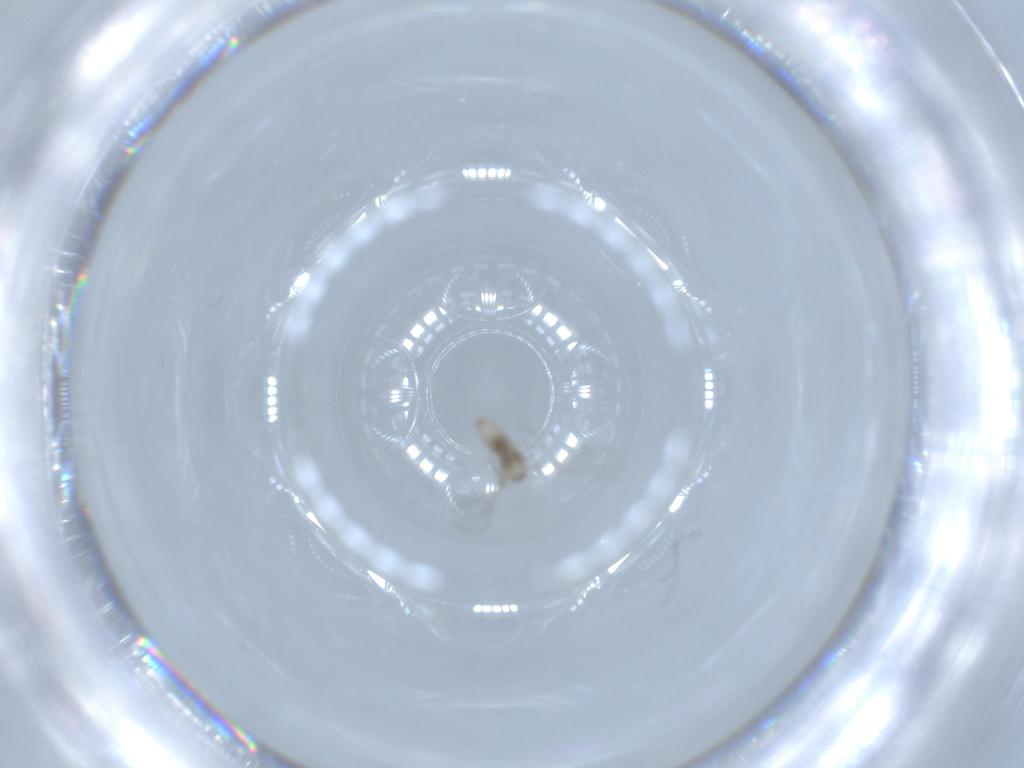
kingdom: Animalia
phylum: Arthropoda
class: Insecta
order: Diptera
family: Cecidomyiidae
